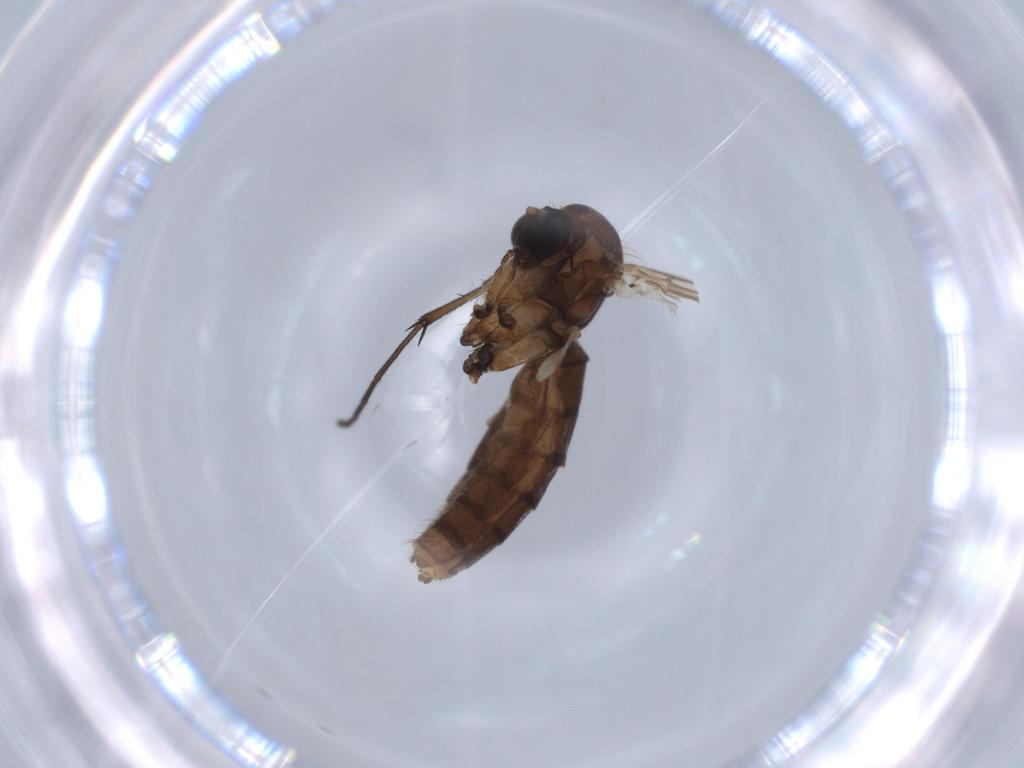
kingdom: Animalia
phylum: Arthropoda
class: Insecta
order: Diptera
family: Mycetophilidae
